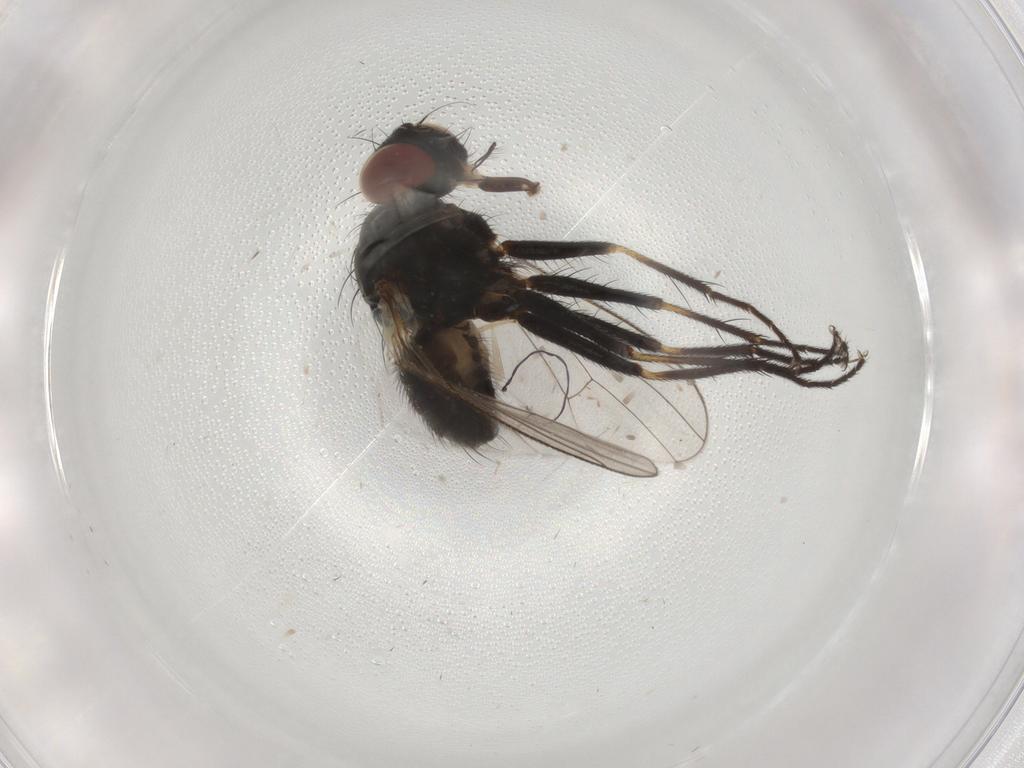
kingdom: Animalia
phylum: Arthropoda
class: Insecta
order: Diptera
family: Muscidae
